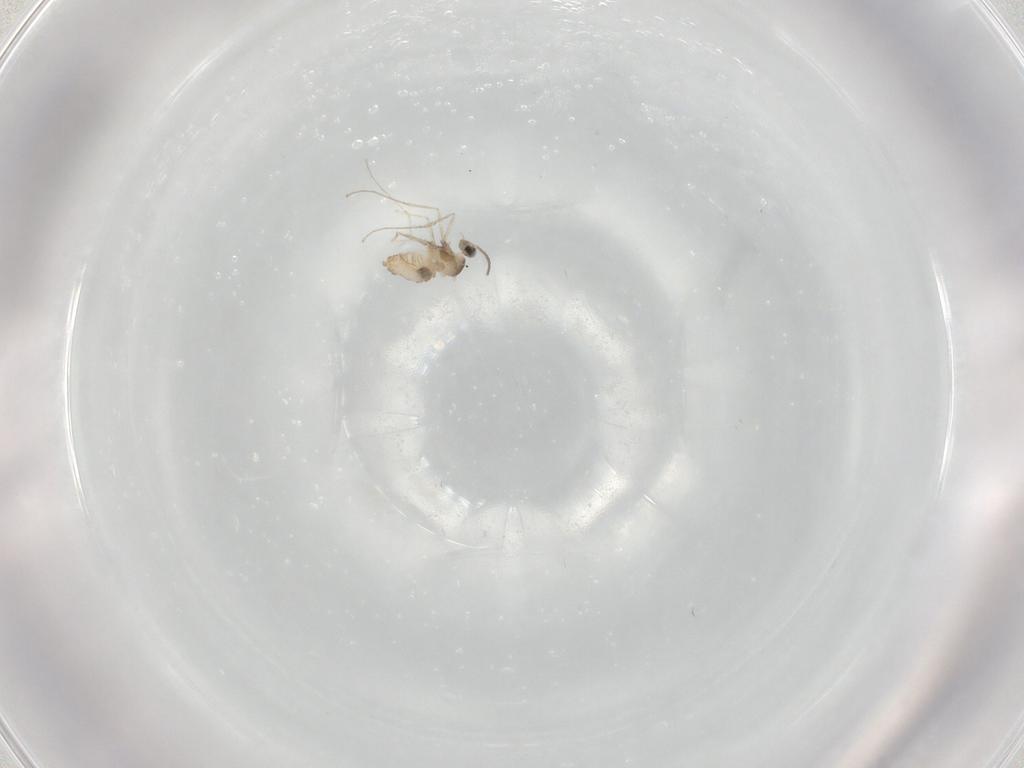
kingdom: Animalia
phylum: Arthropoda
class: Insecta
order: Diptera
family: Cecidomyiidae
